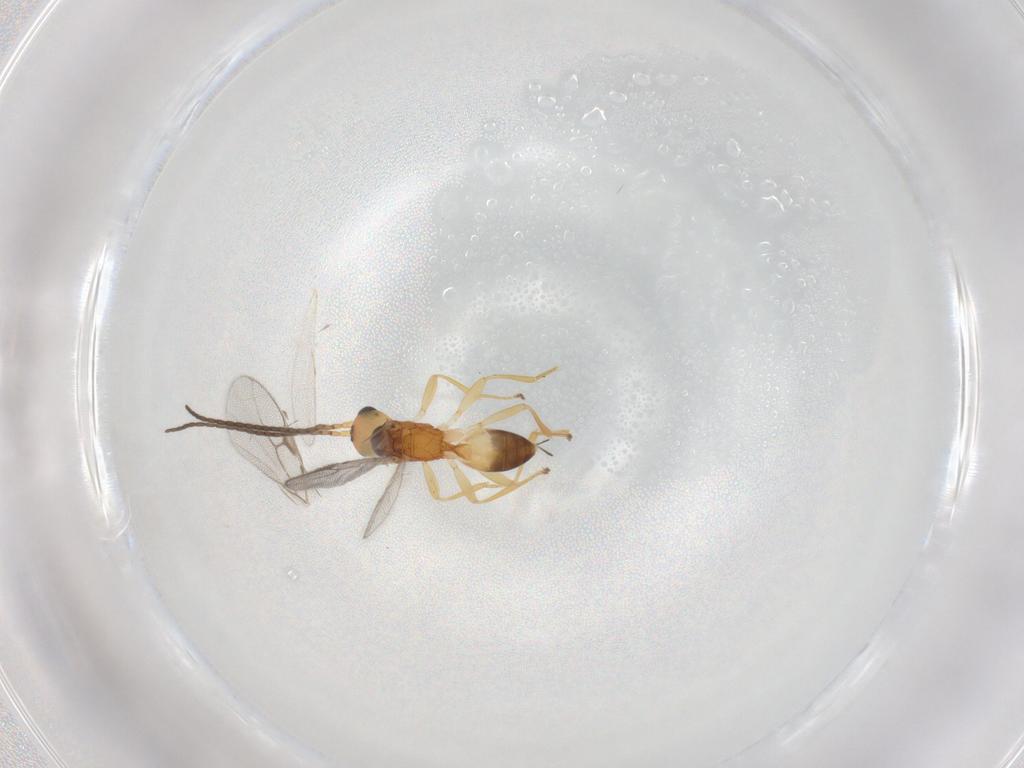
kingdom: Animalia
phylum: Arthropoda
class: Insecta
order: Hymenoptera
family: Braconidae
